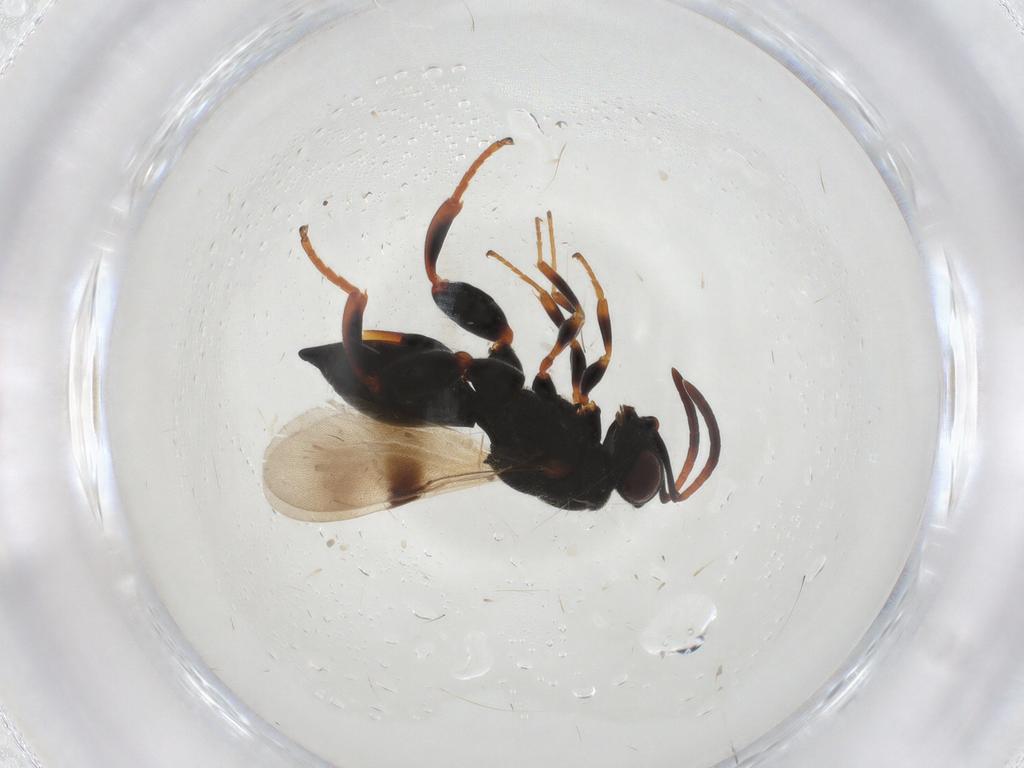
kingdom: Animalia
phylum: Arthropoda
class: Insecta
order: Hymenoptera
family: Chalcididae
